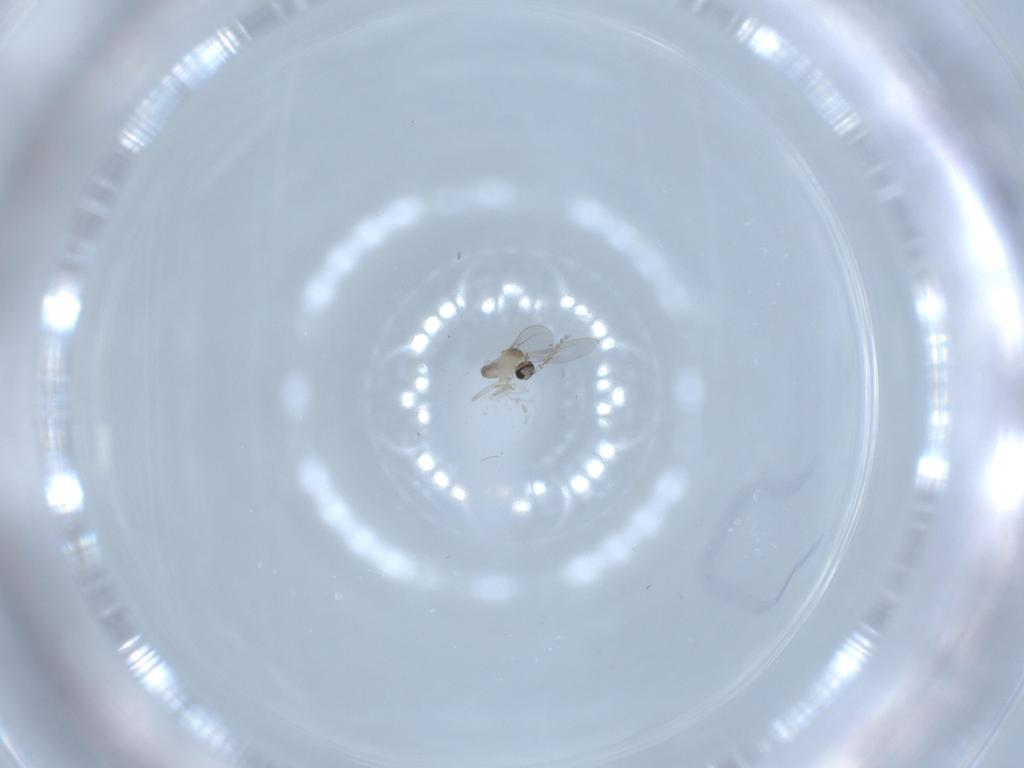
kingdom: Animalia
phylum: Arthropoda
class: Insecta
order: Diptera
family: Cecidomyiidae
